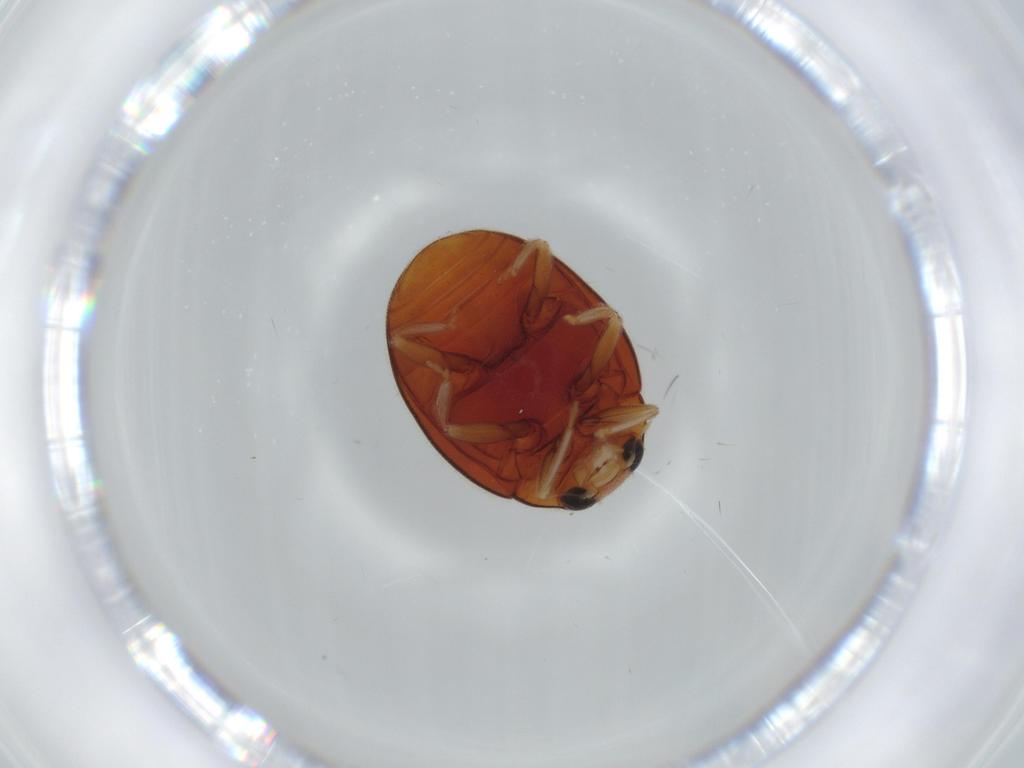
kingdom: Animalia
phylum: Arthropoda
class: Insecta
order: Coleoptera
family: Coccinellidae
